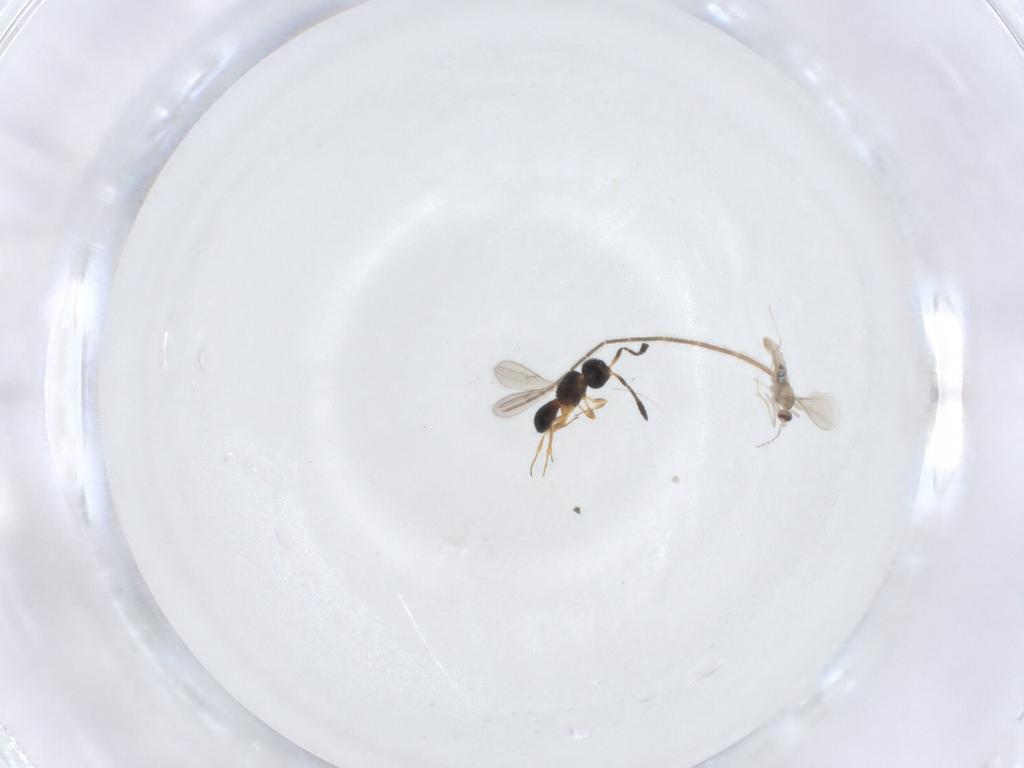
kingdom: Animalia
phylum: Arthropoda
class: Insecta
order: Diptera
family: Cecidomyiidae
